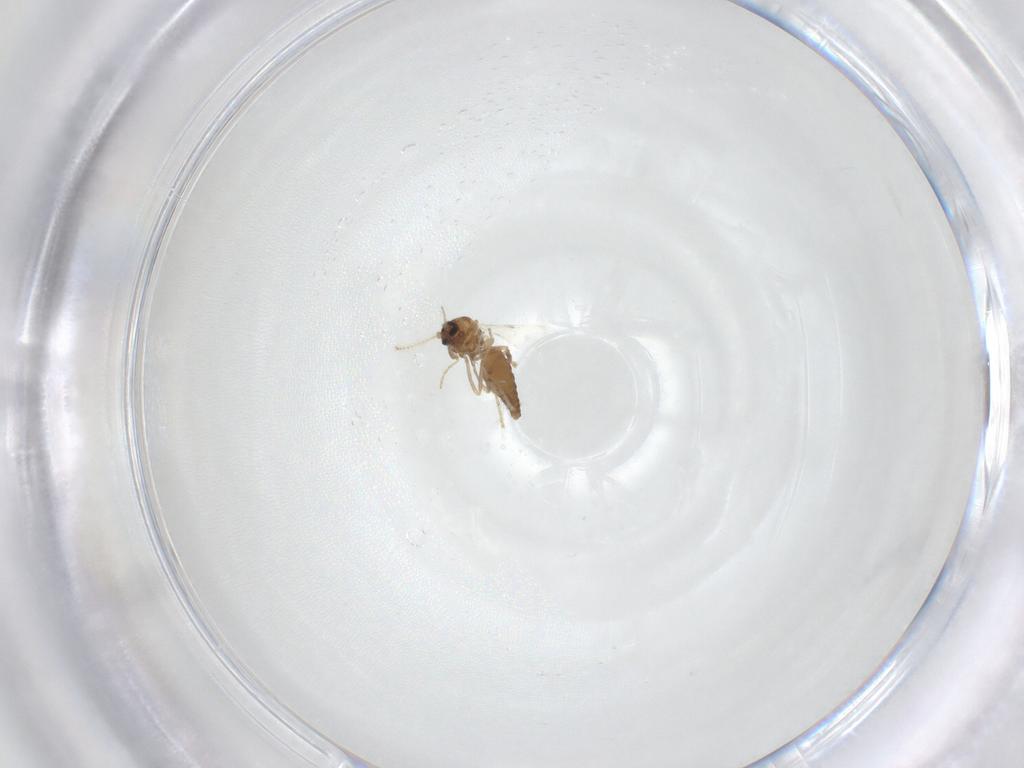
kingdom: Animalia
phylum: Arthropoda
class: Insecta
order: Diptera
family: Ceratopogonidae
